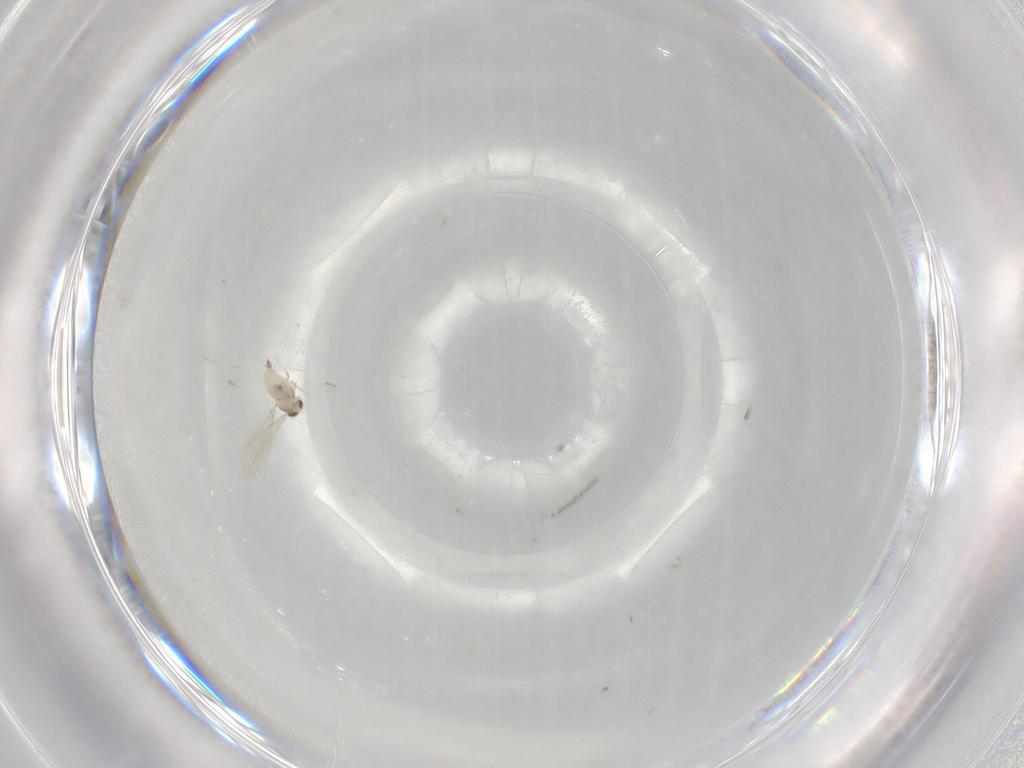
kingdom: Animalia
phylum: Arthropoda
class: Insecta
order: Diptera
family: Cecidomyiidae
